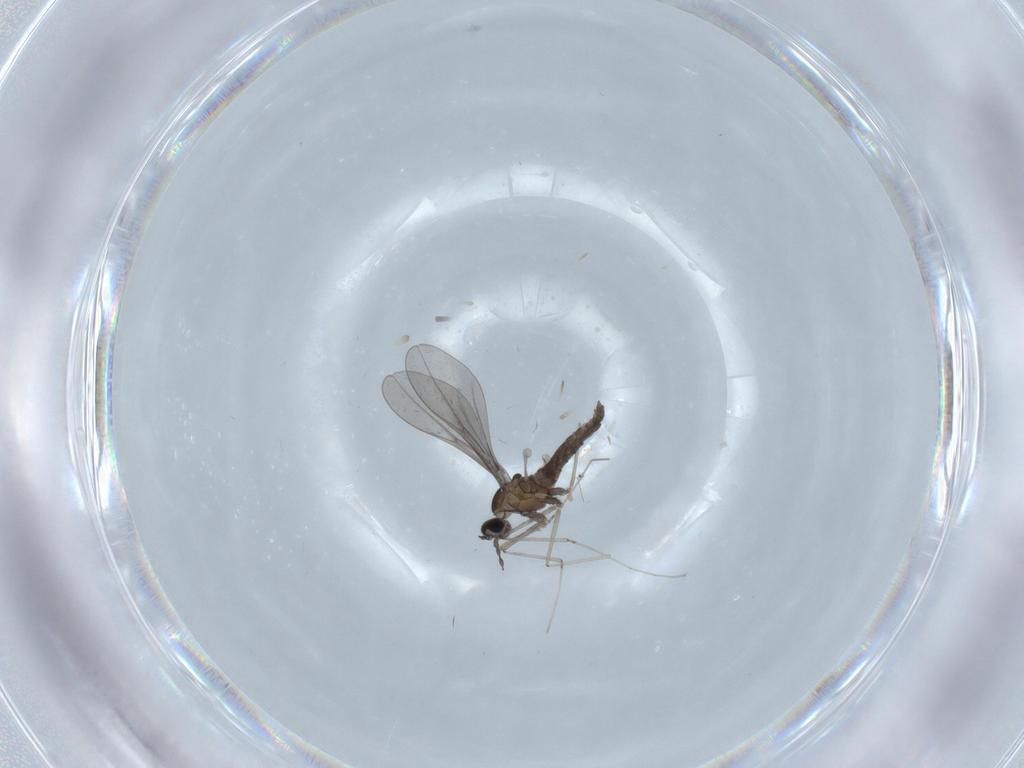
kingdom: Animalia
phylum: Arthropoda
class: Insecta
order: Diptera
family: Cecidomyiidae
